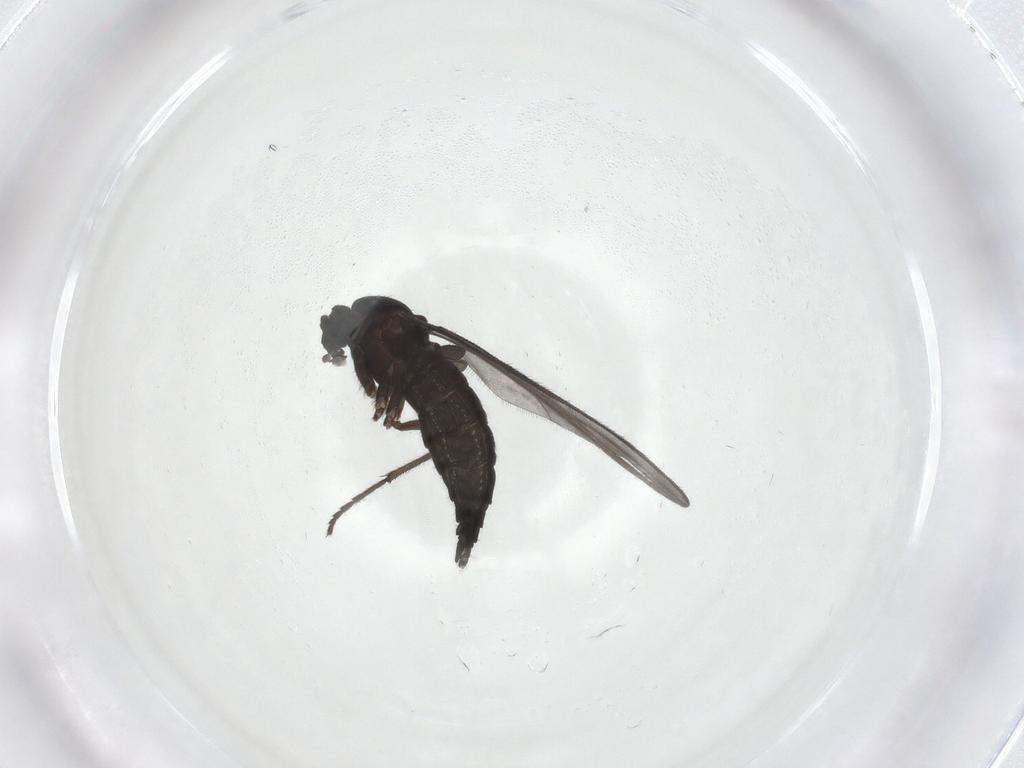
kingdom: Animalia
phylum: Arthropoda
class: Insecta
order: Diptera
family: Sciaridae
